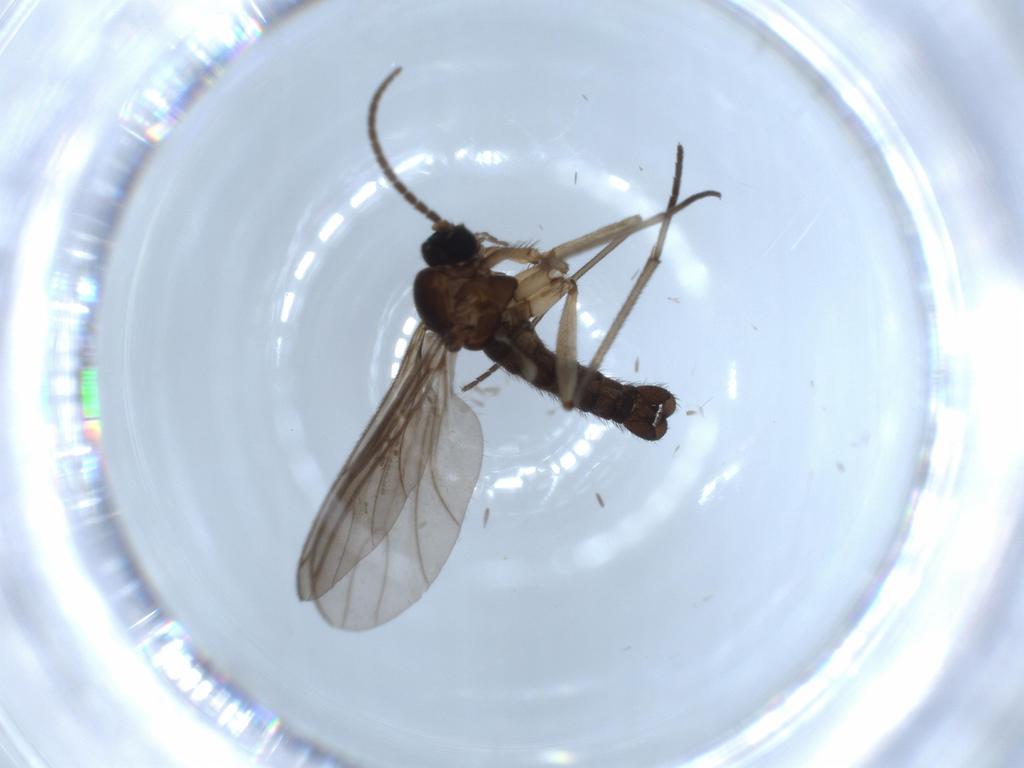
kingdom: Animalia
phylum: Arthropoda
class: Insecta
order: Diptera
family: Sciaridae
